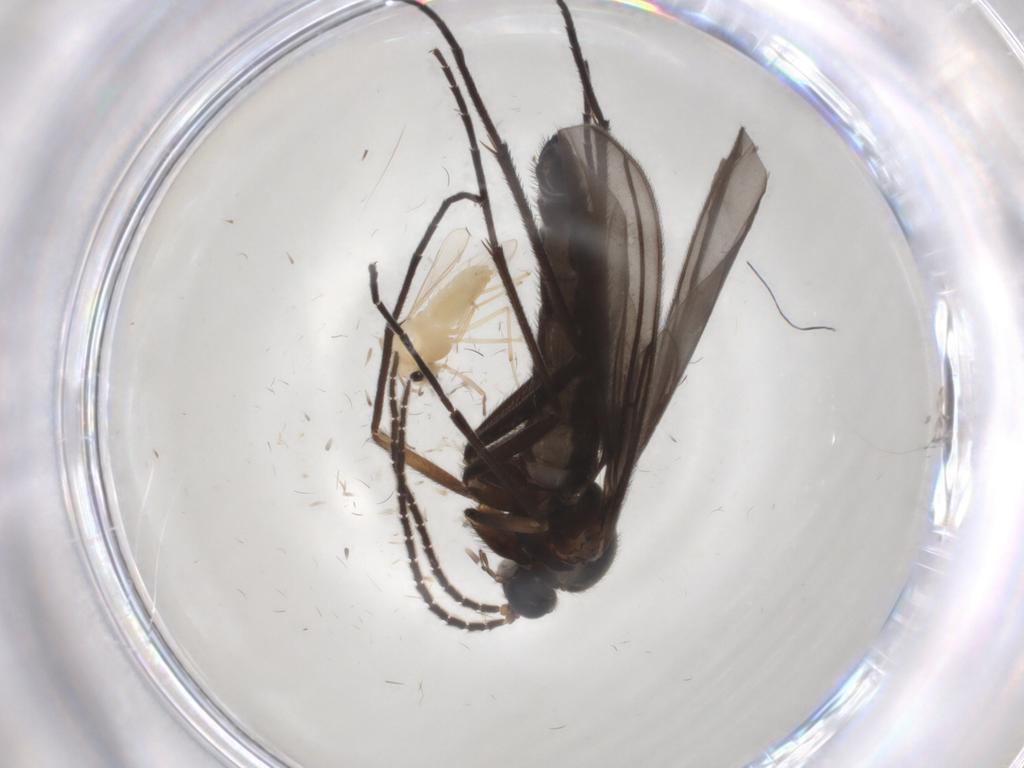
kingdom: Animalia
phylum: Arthropoda
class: Insecta
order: Diptera
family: Chironomidae
